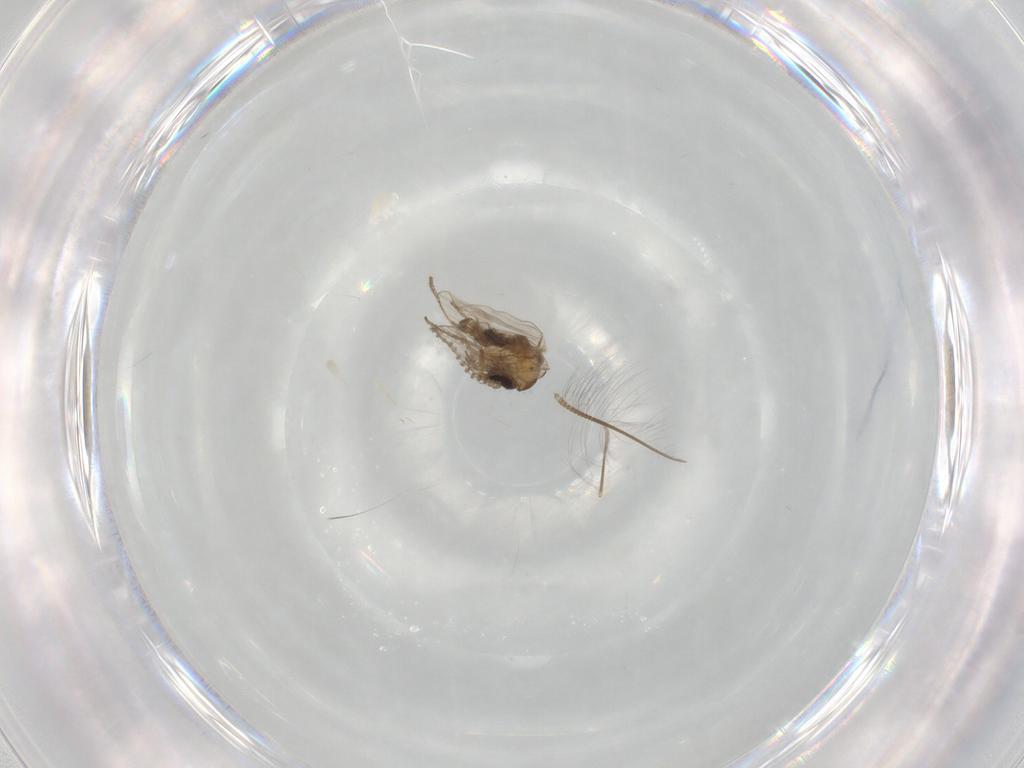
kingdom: Animalia
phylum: Arthropoda
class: Insecta
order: Diptera
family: Psychodidae
